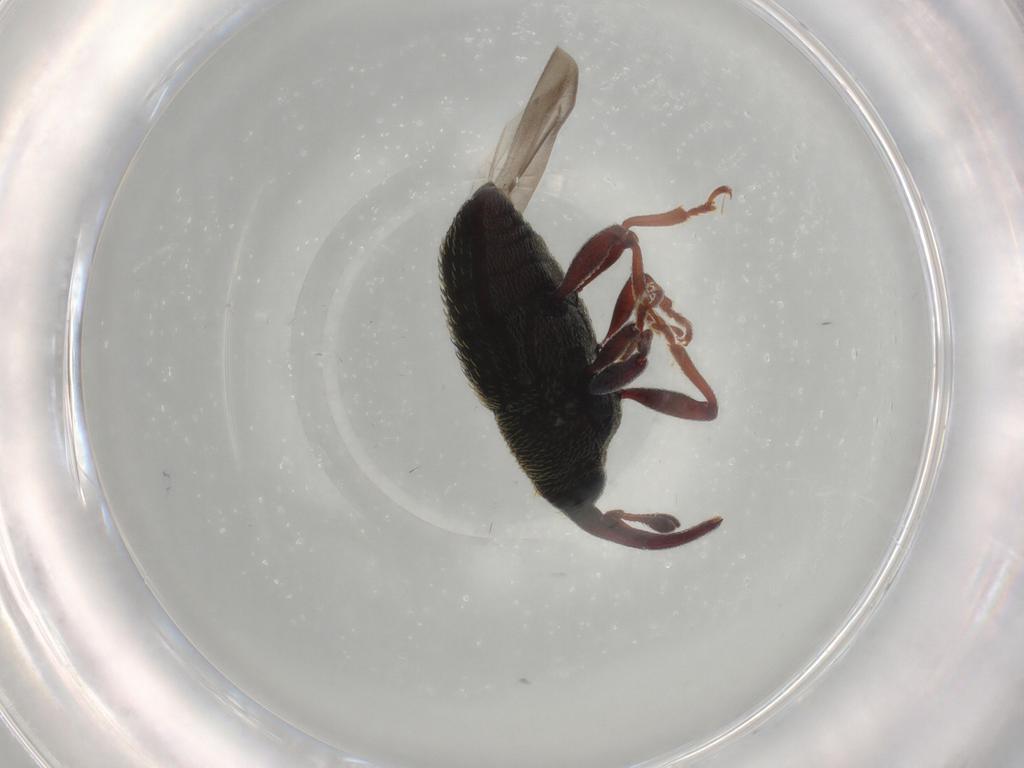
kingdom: Animalia
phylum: Arthropoda
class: Insecta
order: Coleoptera
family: Curculionidae
